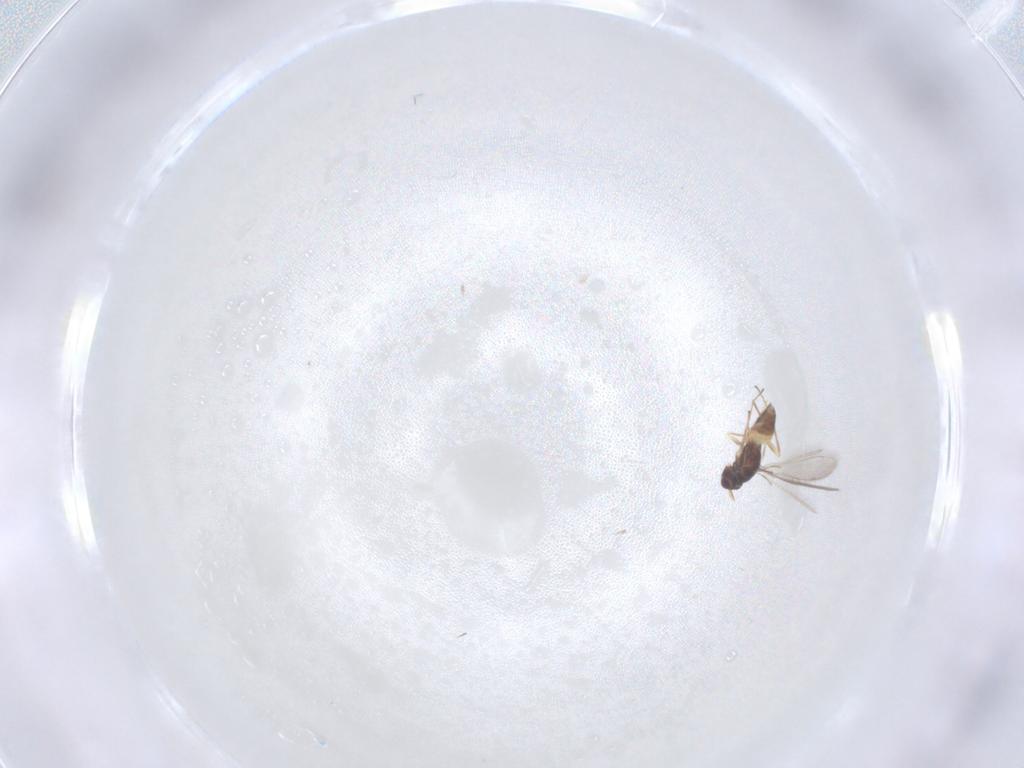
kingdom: Animalia
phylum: Arthropoda
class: Insecta
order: Hymenoptera
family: Mymaridae
